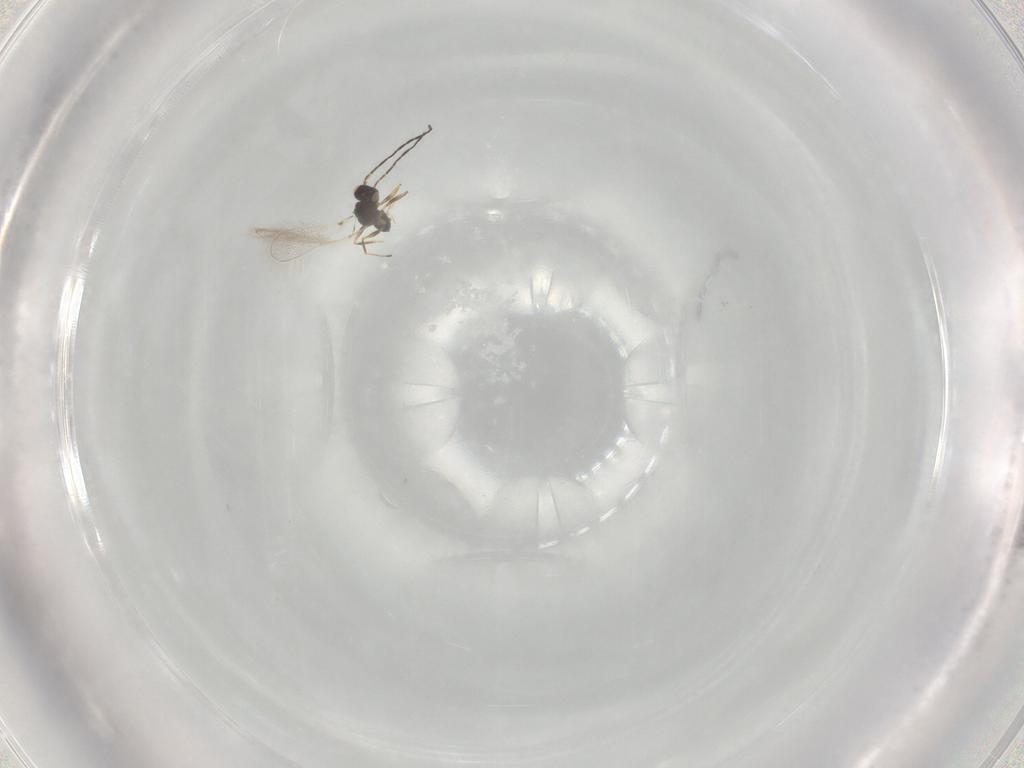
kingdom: Animalia
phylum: Arthropoda
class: Insecta
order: Hymenoptera
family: Mymaridae
